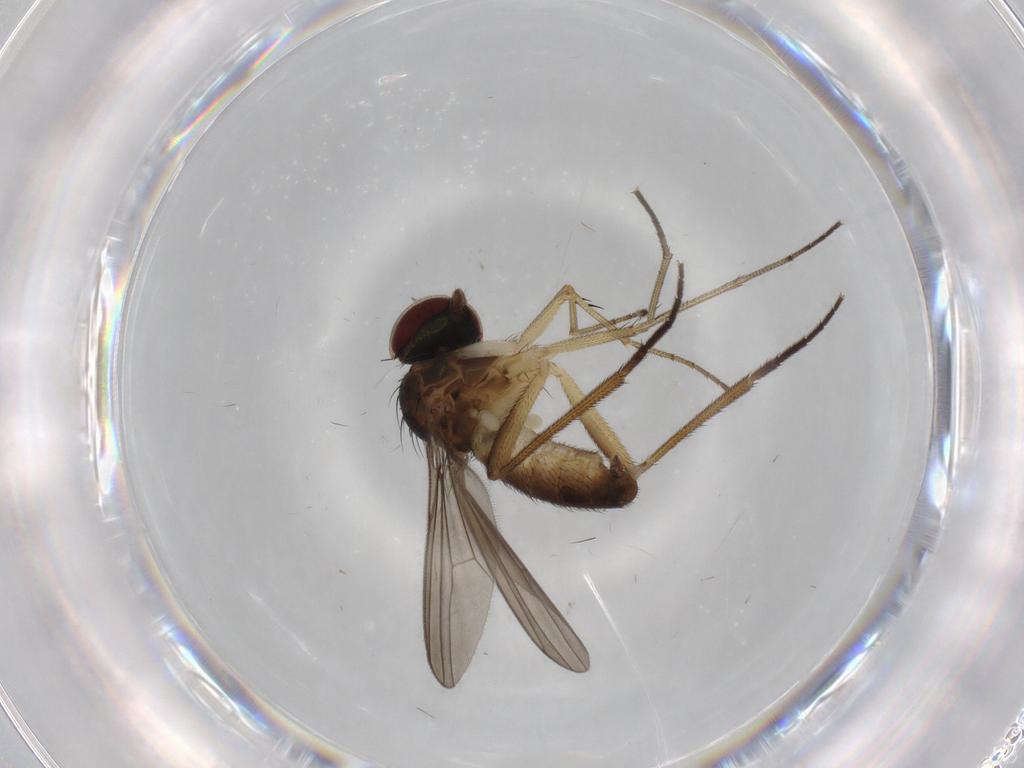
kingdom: Animalia
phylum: Arthropoda
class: Insecta
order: Diptera
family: Dolichopodidae
